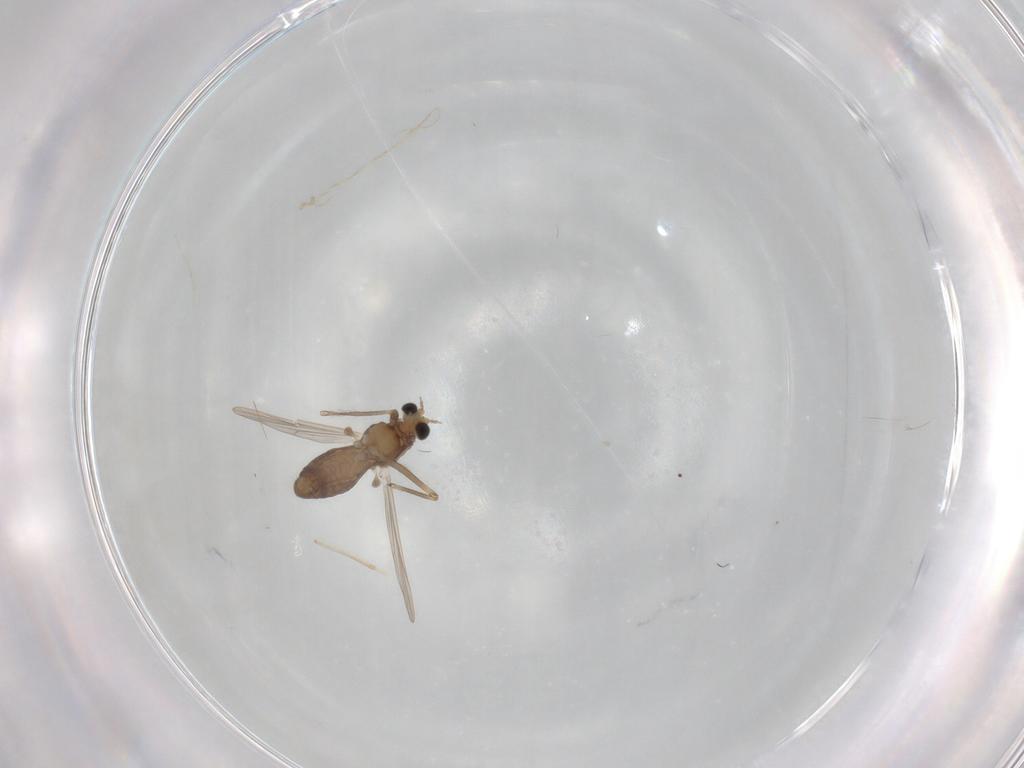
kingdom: Animalia
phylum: Arthropoda
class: Insecta
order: Diptera
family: Chironomidae
